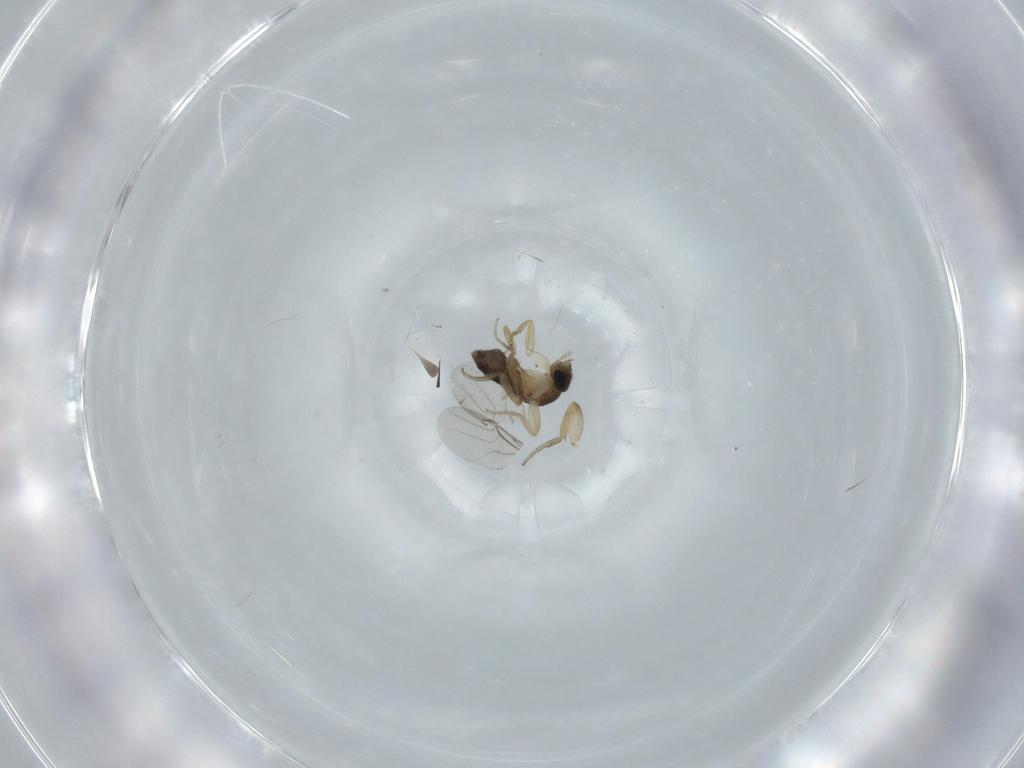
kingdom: Animalia
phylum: Arthropoda
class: Insecta
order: Diptera
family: Phoridae
